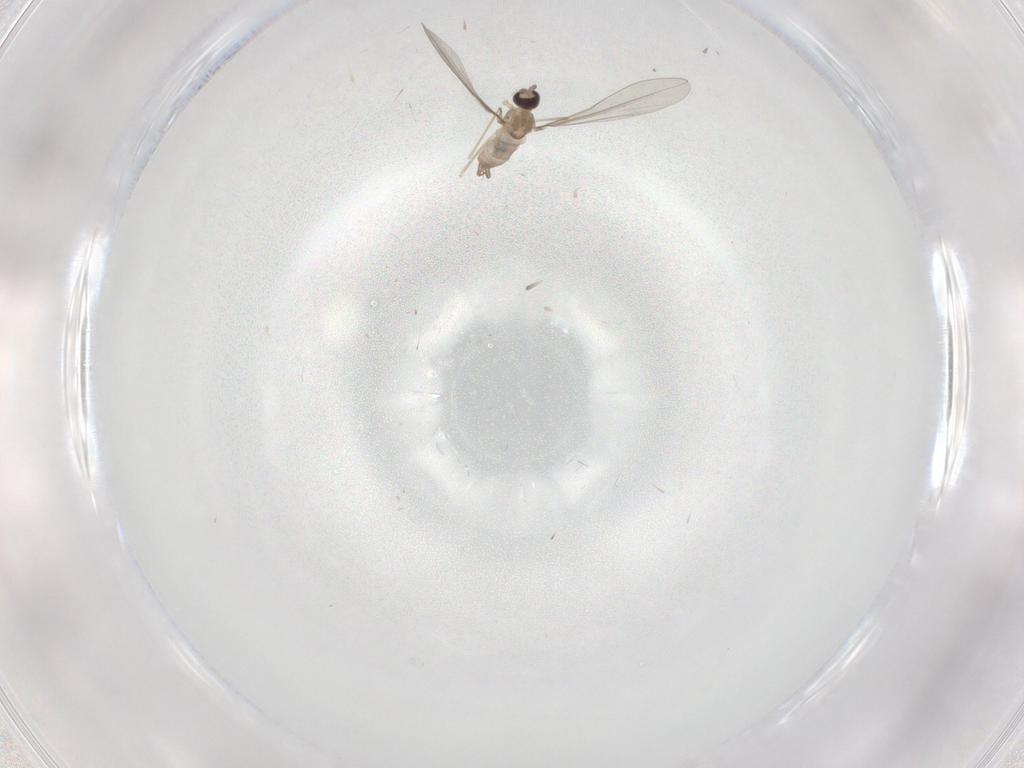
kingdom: Animalia
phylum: Arthropoda
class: Insecta
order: Diptera
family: Cecidomyiidae
